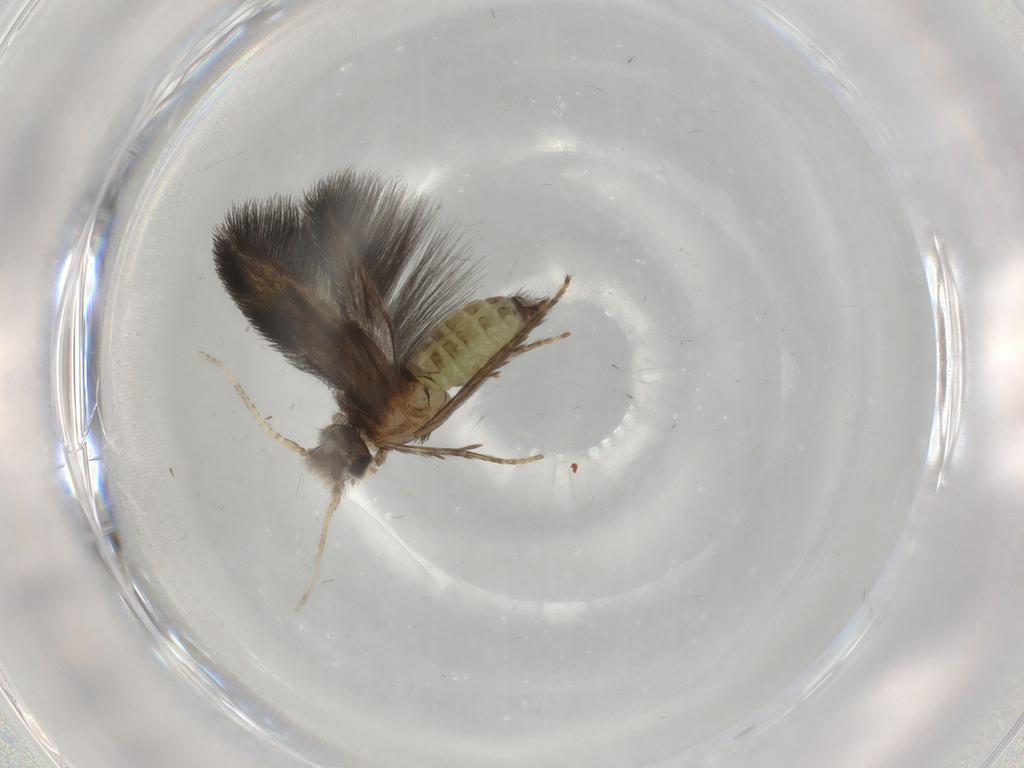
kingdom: Animalia
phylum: Arthropoda
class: Insecta
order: Trichoptera
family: Hydroptilidae
